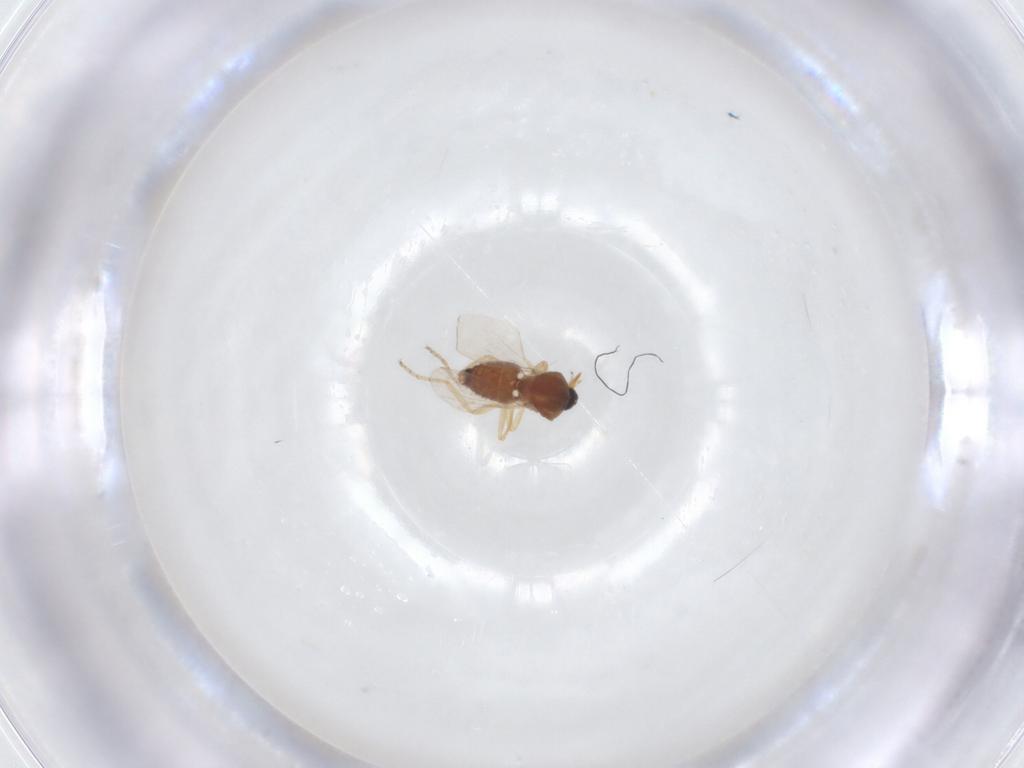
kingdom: Animalia
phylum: Arthropoda
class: Insecta
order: Diptera
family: Ceratopogonidae
